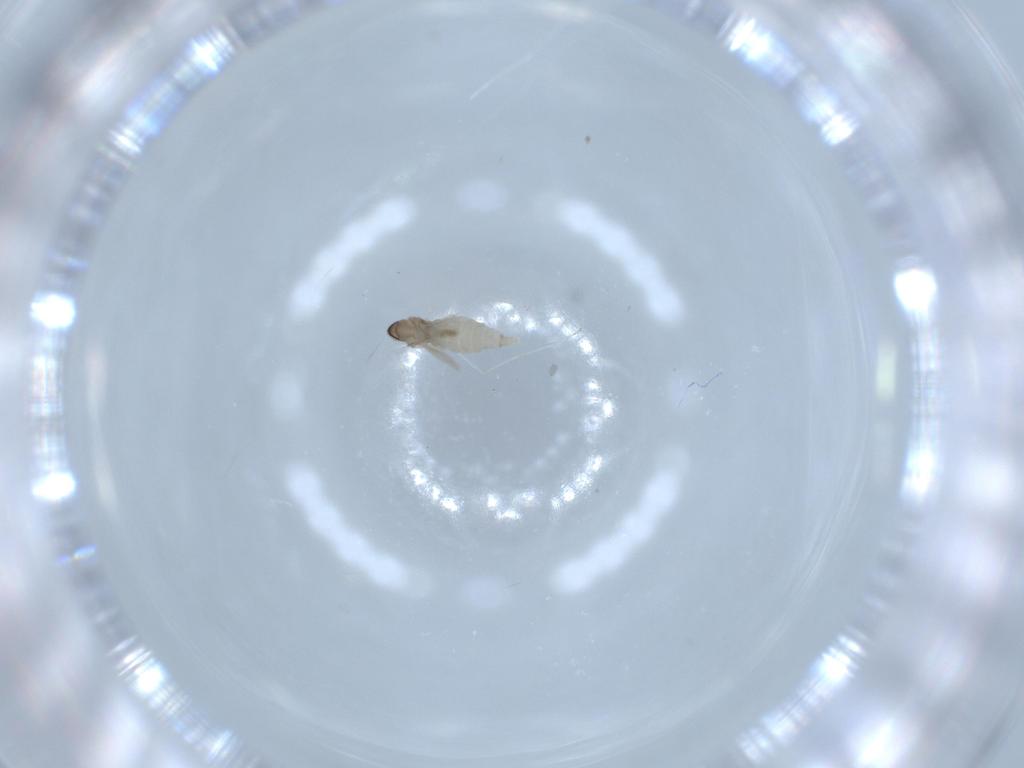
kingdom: Animalia
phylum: Arthropoda
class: Insecta
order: Diptera
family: Cecidomyiidae
